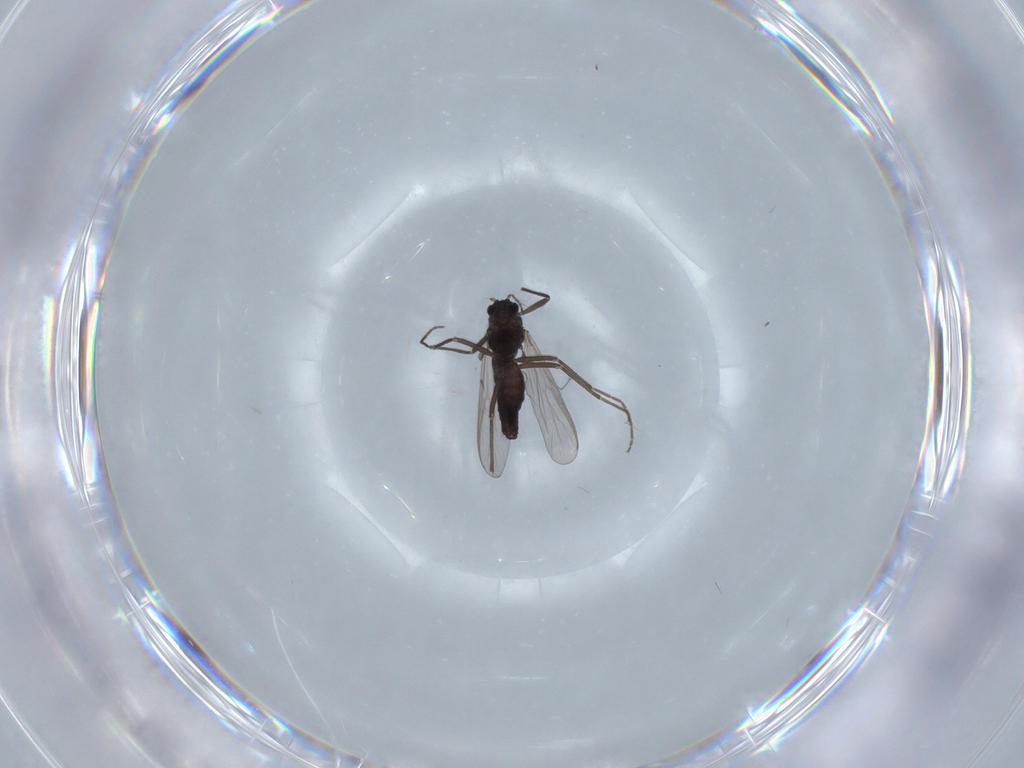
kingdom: Animalia
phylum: Arthropoda
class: Insecta
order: Diptera
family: Chironomidae
